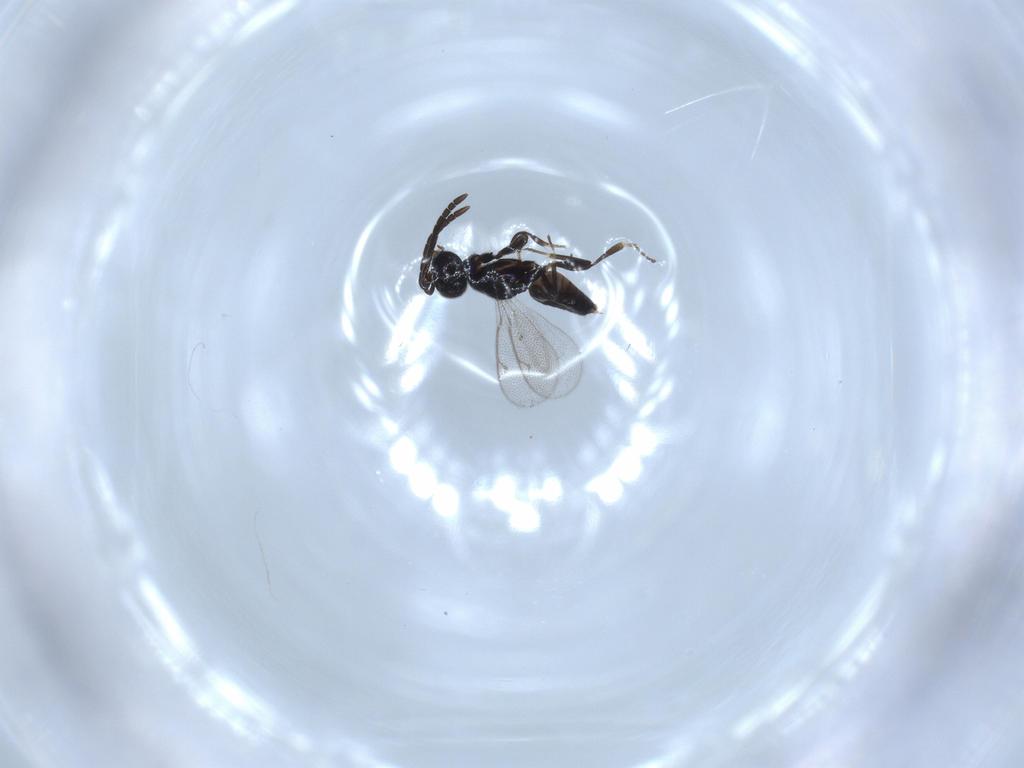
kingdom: Animalia
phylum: Arthropoda
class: Insecta
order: Hymenoptera
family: Eupelmidae
